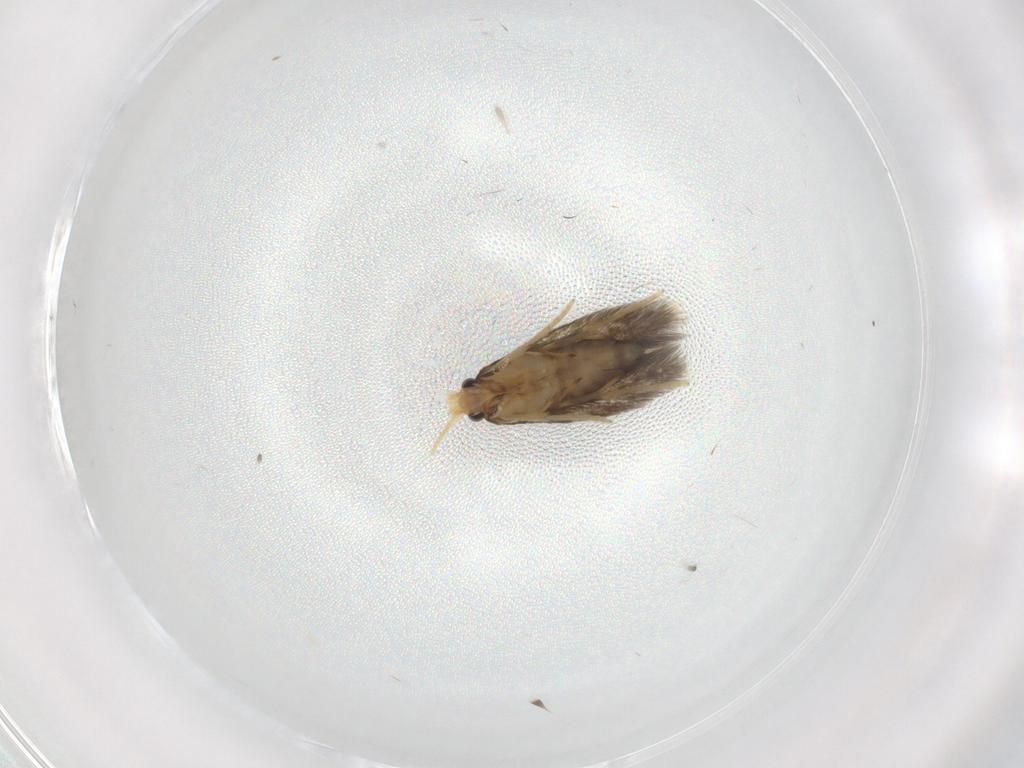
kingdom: Animalia
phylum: Arthropoda
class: Insecta
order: Lepidoptera
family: Nepticulidae
